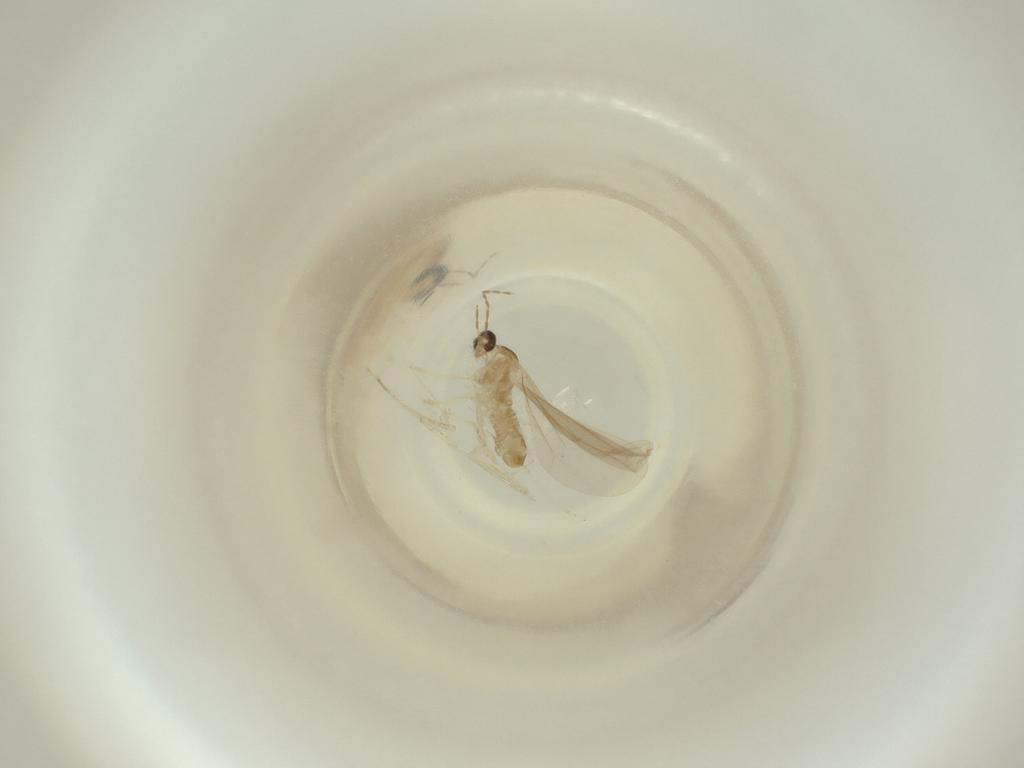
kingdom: Animalia
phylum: Arthropoda
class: Insecta
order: Diptera
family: Cecidomyiidae
